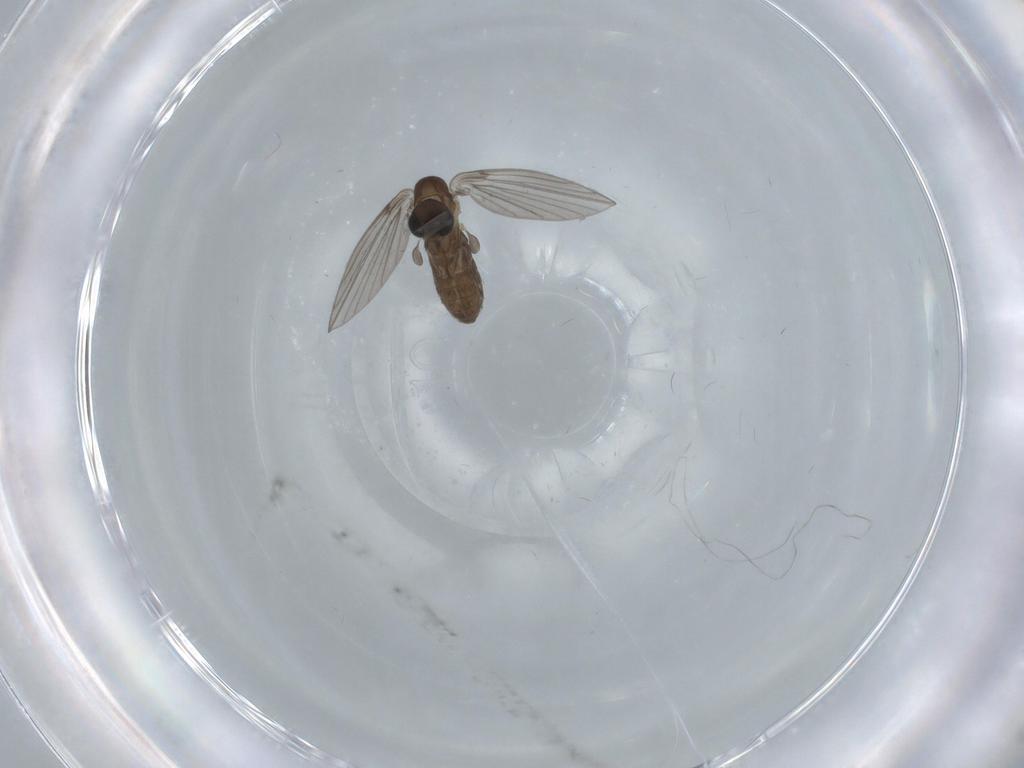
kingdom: Animalia
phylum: Arthropoda
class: Insecta
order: Diptera
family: Psychodidae
